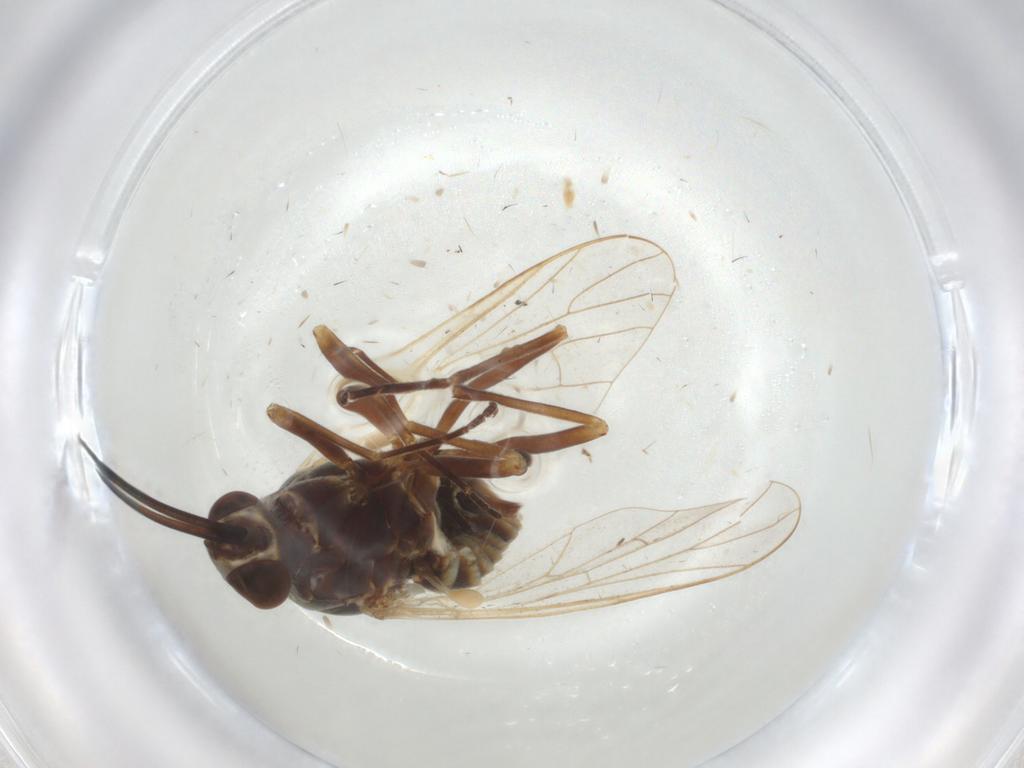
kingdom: Animalia
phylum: Arthropoda
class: Insecta
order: Diptera
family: Bombyliidae
